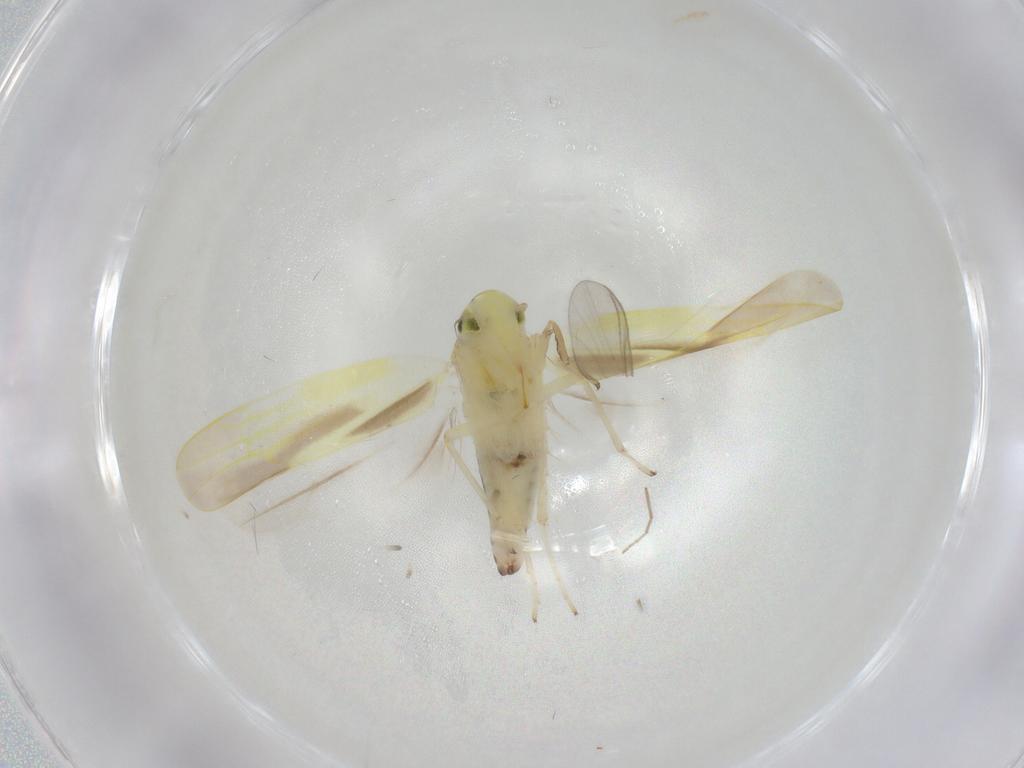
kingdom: Animalia
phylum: Arthropoda
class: Insecta
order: Hemiptera
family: Cicadellidae
